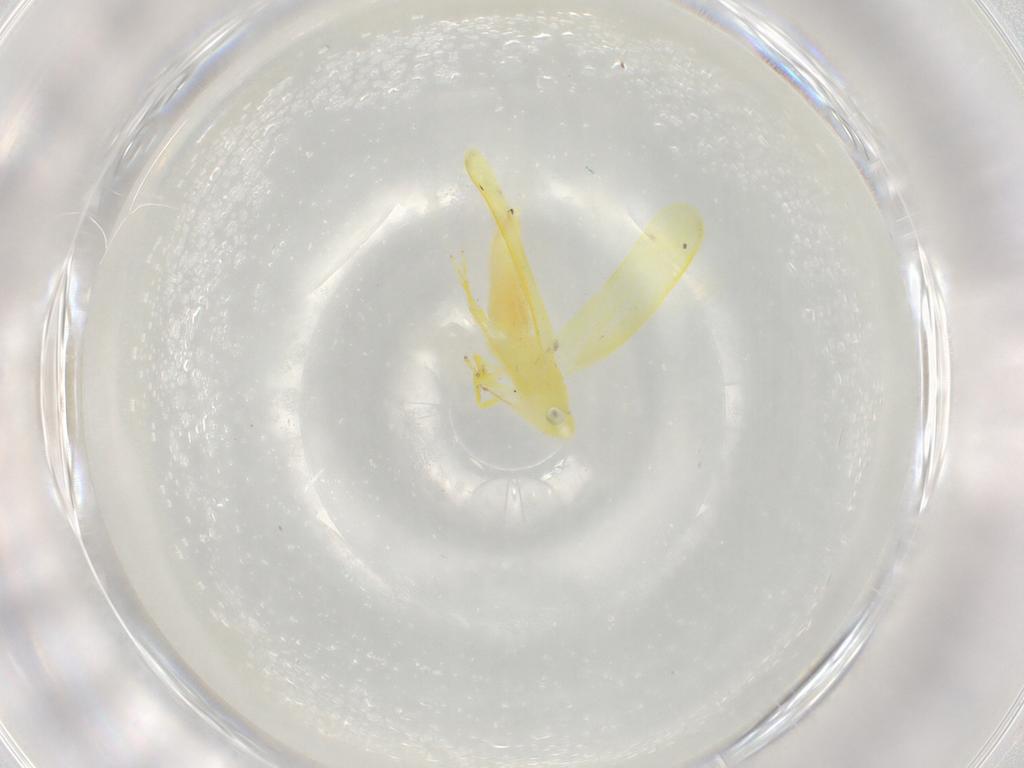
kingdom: Animalia
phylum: Arthropoda
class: Insecta
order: Hemiptera
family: Cicadellidae
